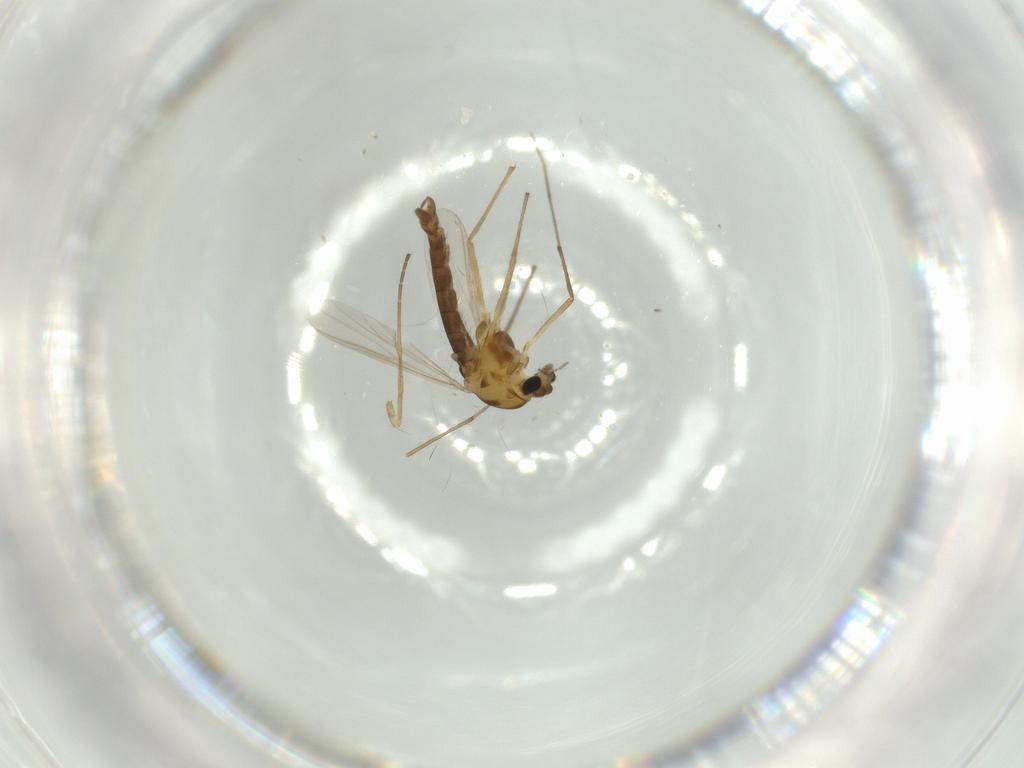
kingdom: Animalia
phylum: Arthropoda
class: Insecta
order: Diptera
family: Chironomidae
